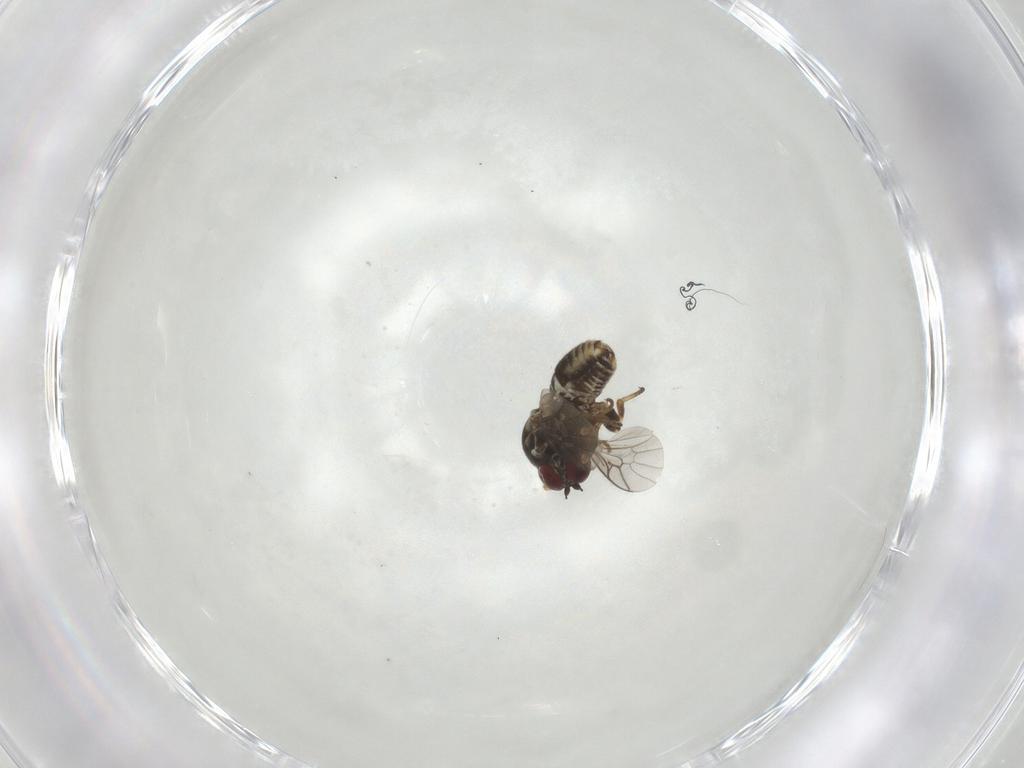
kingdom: Animalia
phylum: Arthropoda
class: Insecta
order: Diptera
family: Bombyliidae
